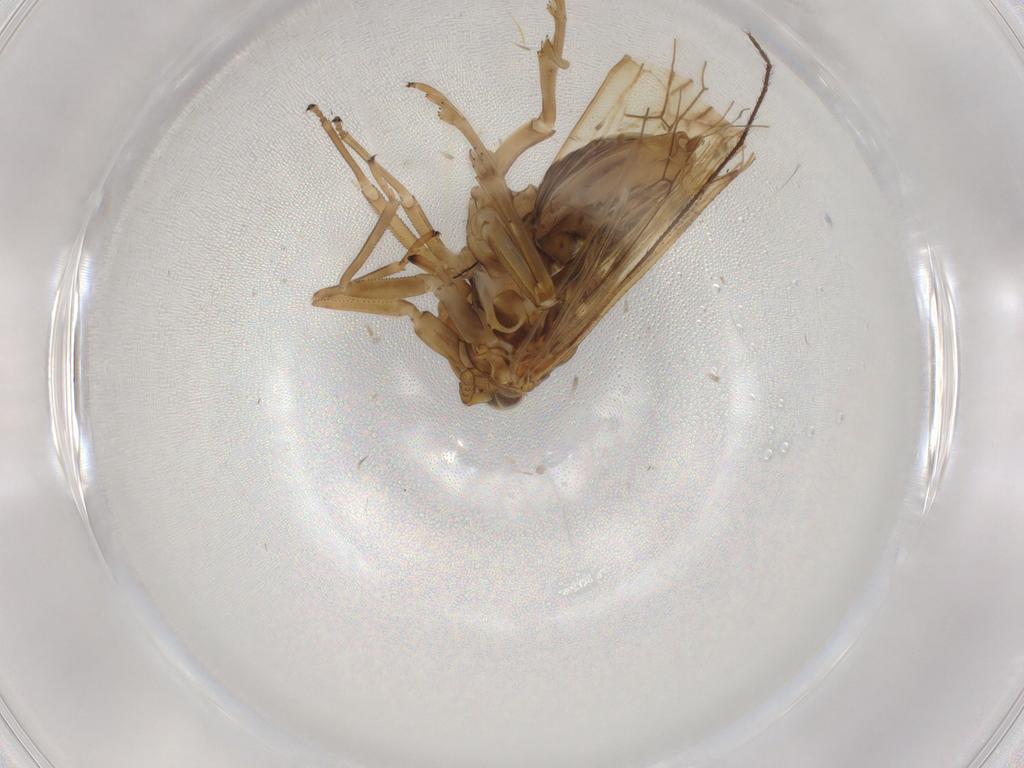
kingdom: Animalia
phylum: Arthropoda
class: Insecta
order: Hemiptera
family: Delphacidae
